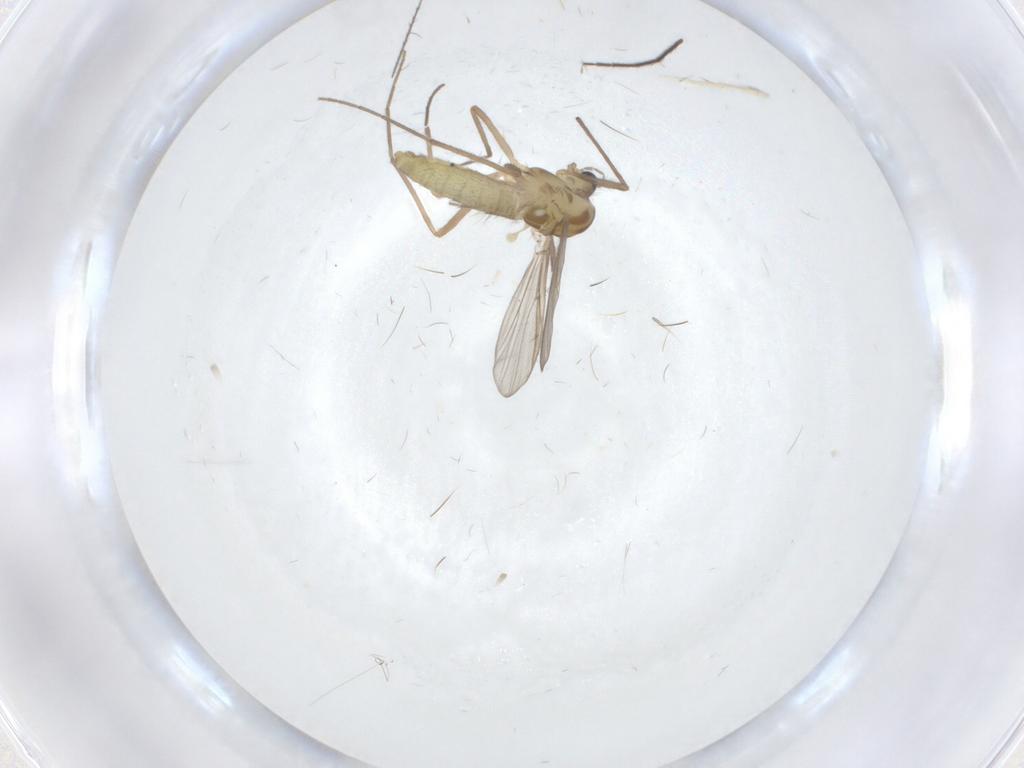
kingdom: Animalia
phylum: Arthropoda
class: Insecta
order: Diptera
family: Chironomidae
